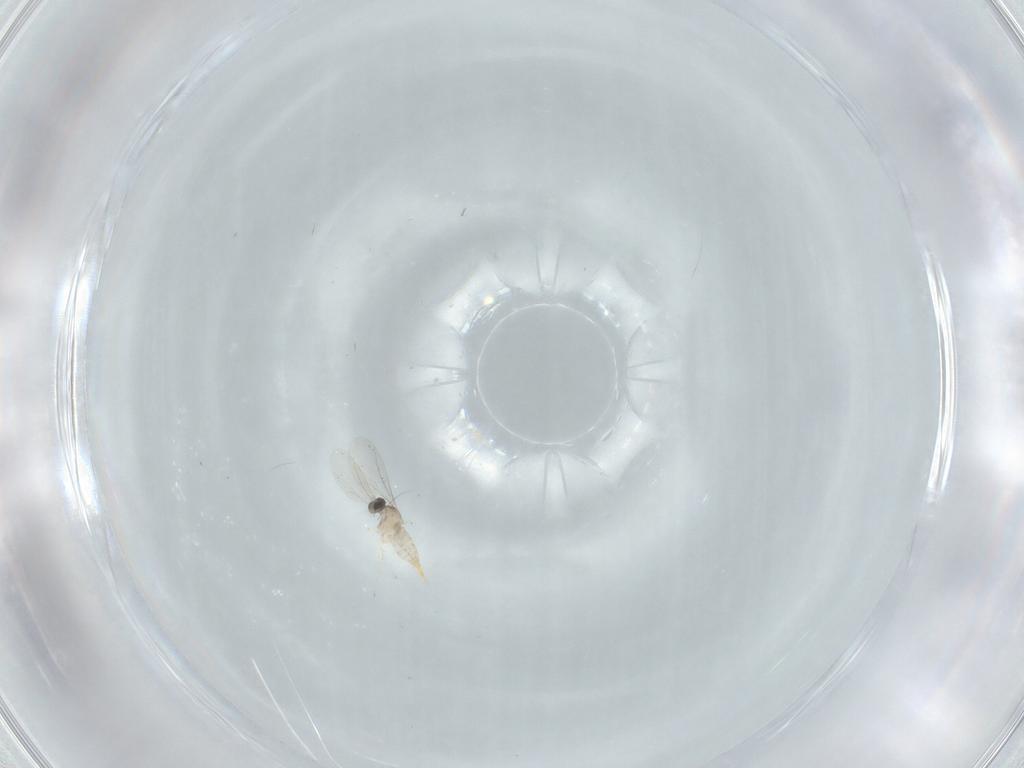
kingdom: Animalia
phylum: Arthropoda
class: Insecta
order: Diptera
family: Cecidomyiidae
